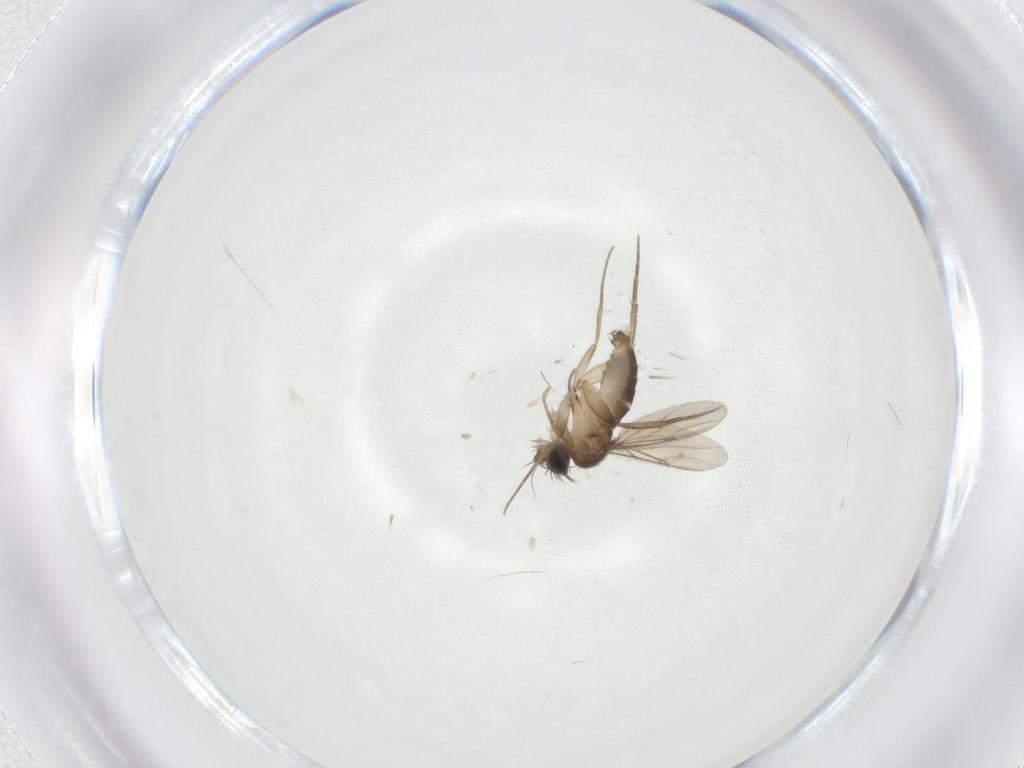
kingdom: Animalia
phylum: Arthropoda
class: Insecta
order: Diptera
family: Phoridae
